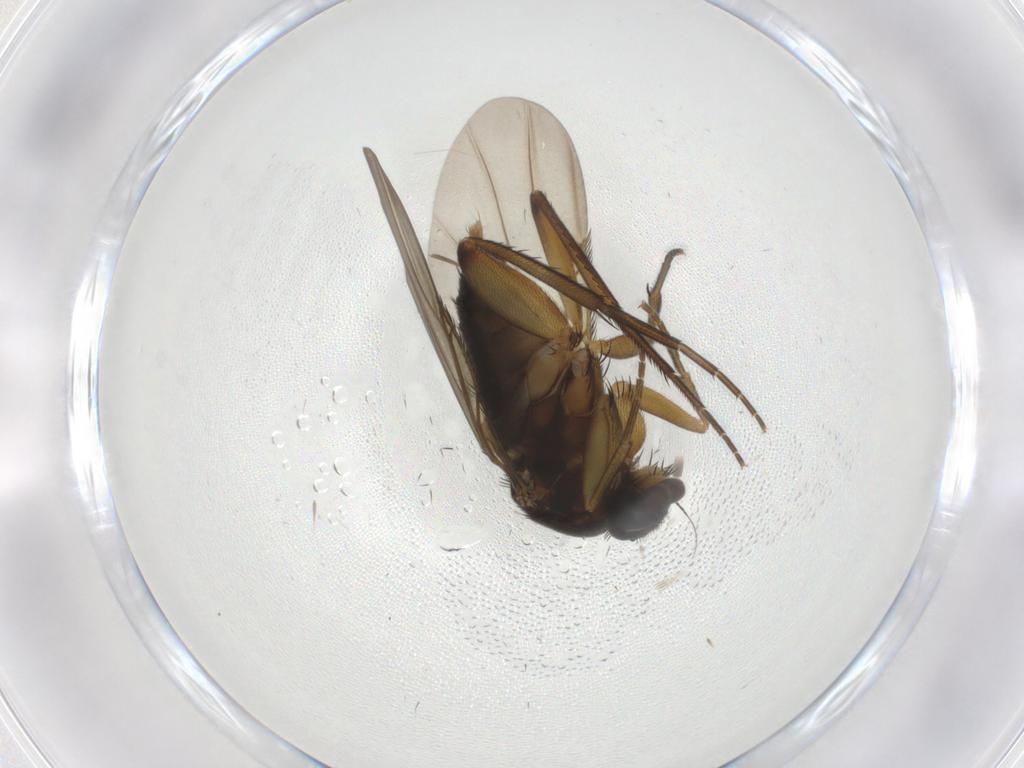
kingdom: Animalia
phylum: Arthropoda
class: Insecta
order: Diptera
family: Phoridae
